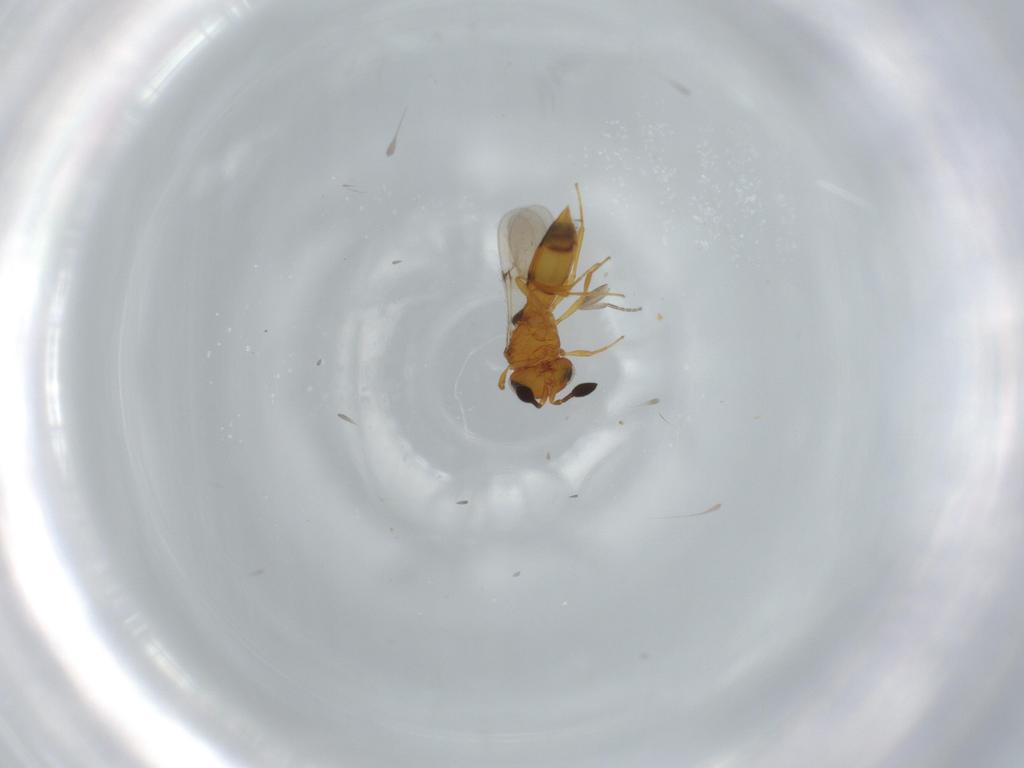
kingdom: Animalia
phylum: Arthropoda
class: Insecta
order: Hymenoptera
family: Scelionidae
